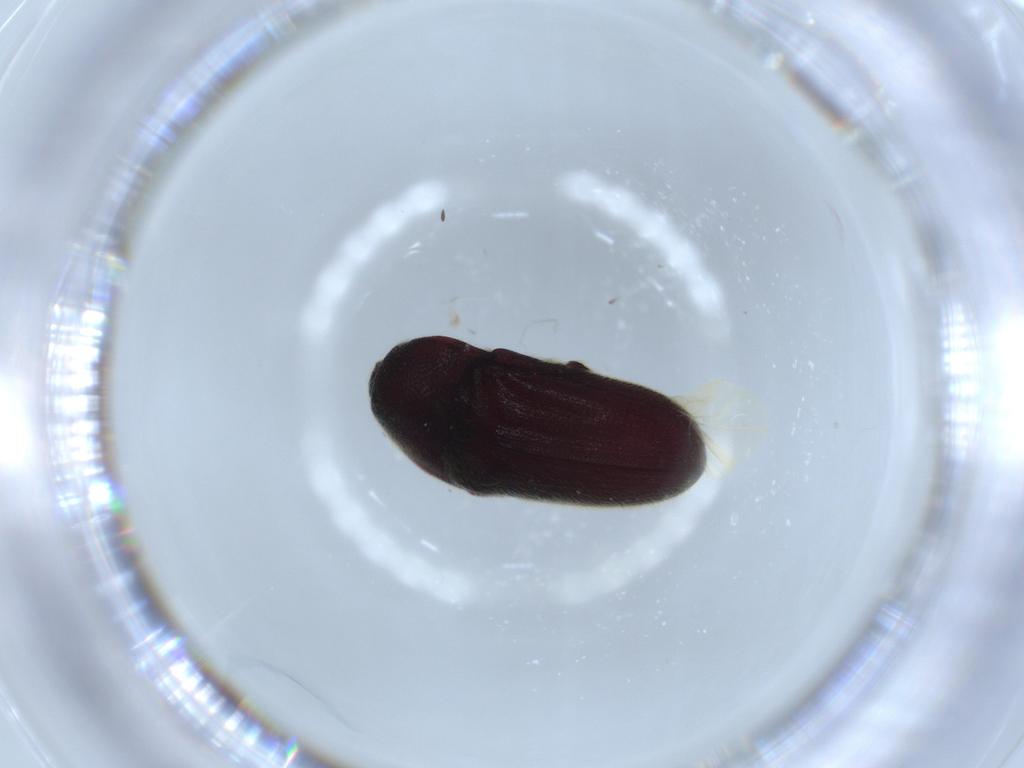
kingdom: Animalia
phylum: Arthropoda
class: Insecta
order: Coleoptera
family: Curculionidae
